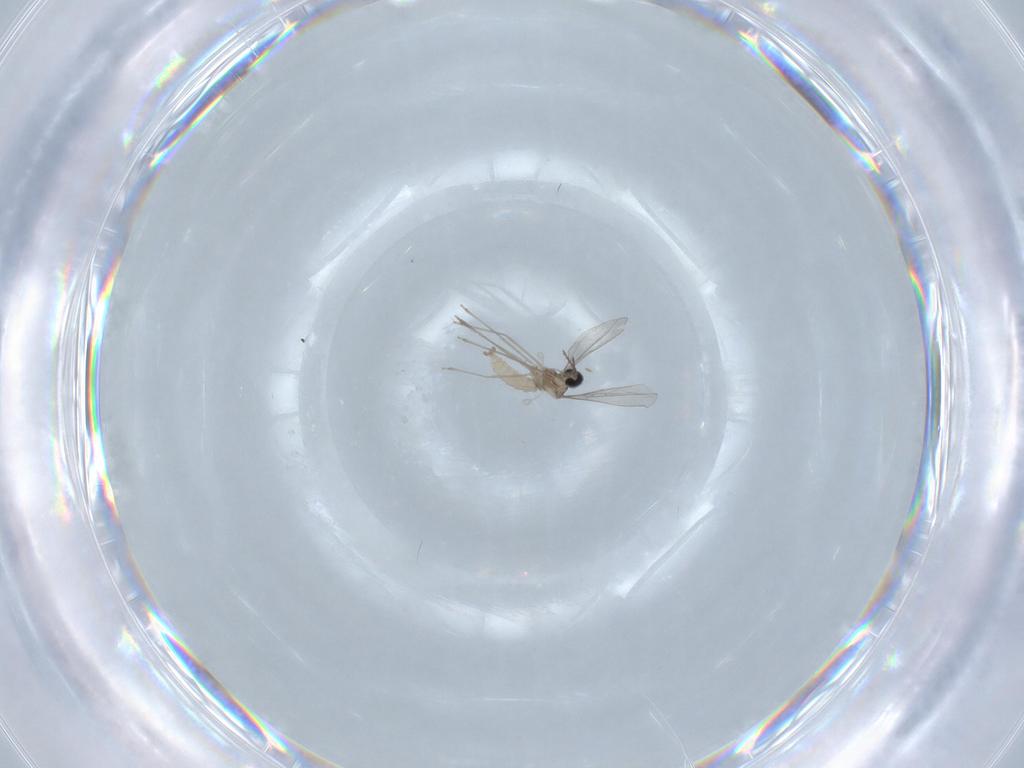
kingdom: Animalia
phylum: Arthropoda
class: Insecta
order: Diptera
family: Cecidomyiidae
